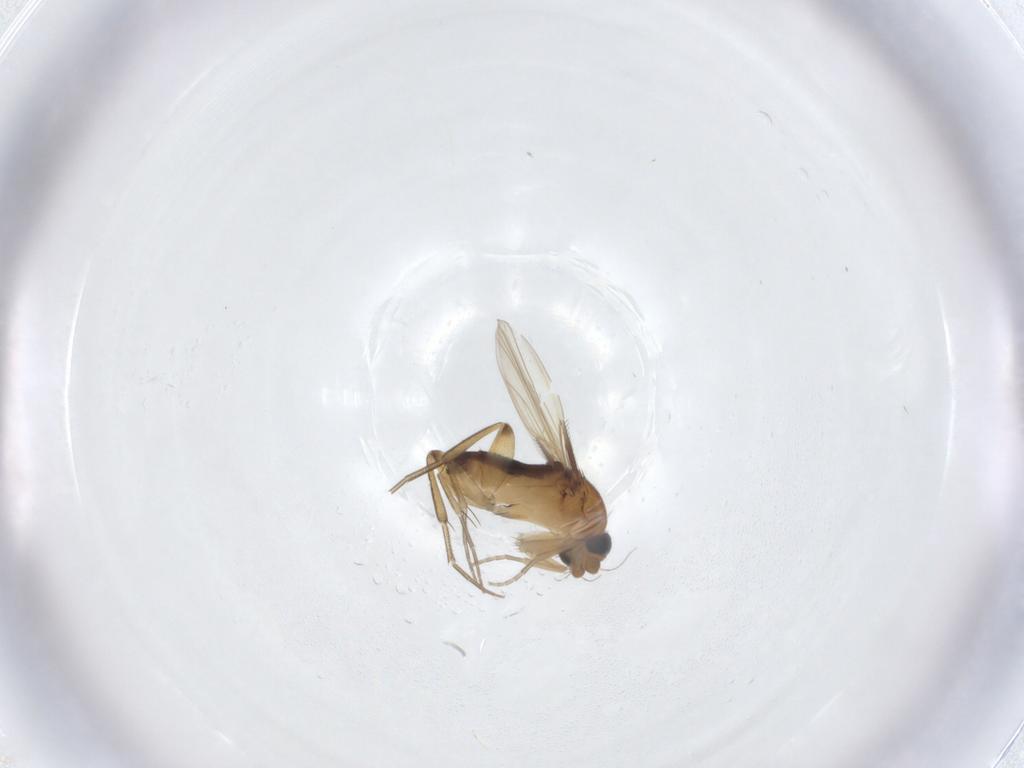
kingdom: Animalia
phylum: Arthropoda
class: Insecta
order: Diptera
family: Phoridae
